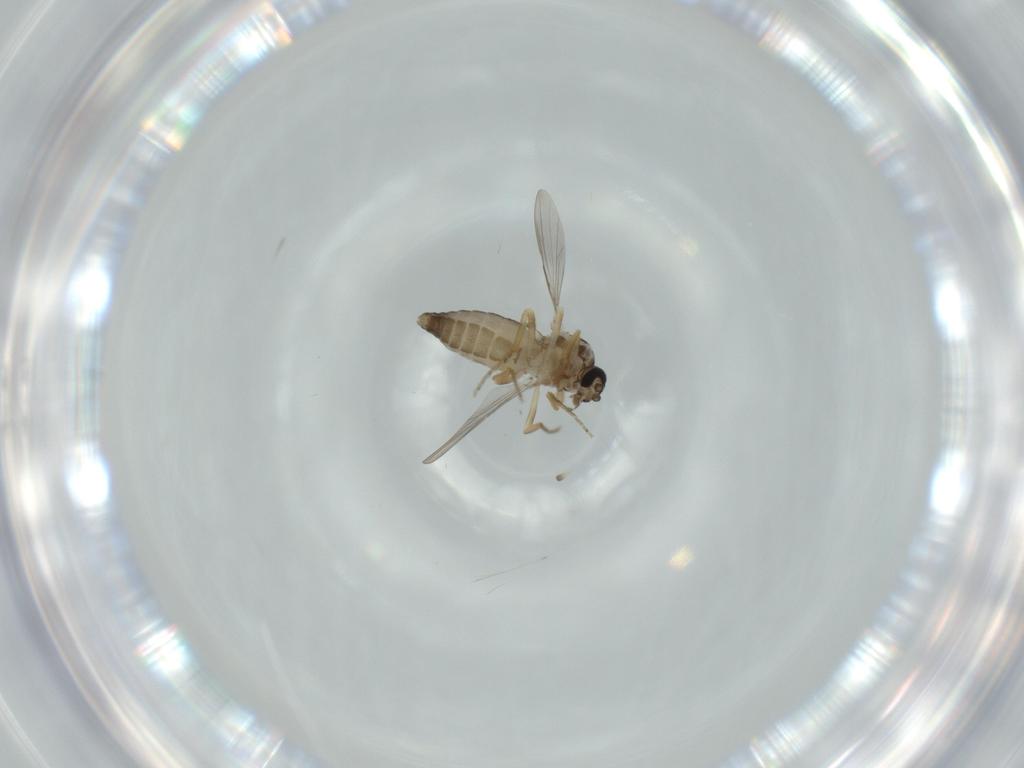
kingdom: Animalia
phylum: Arthropoda
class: Insecta
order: Diptera
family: Ceratopogonidae
